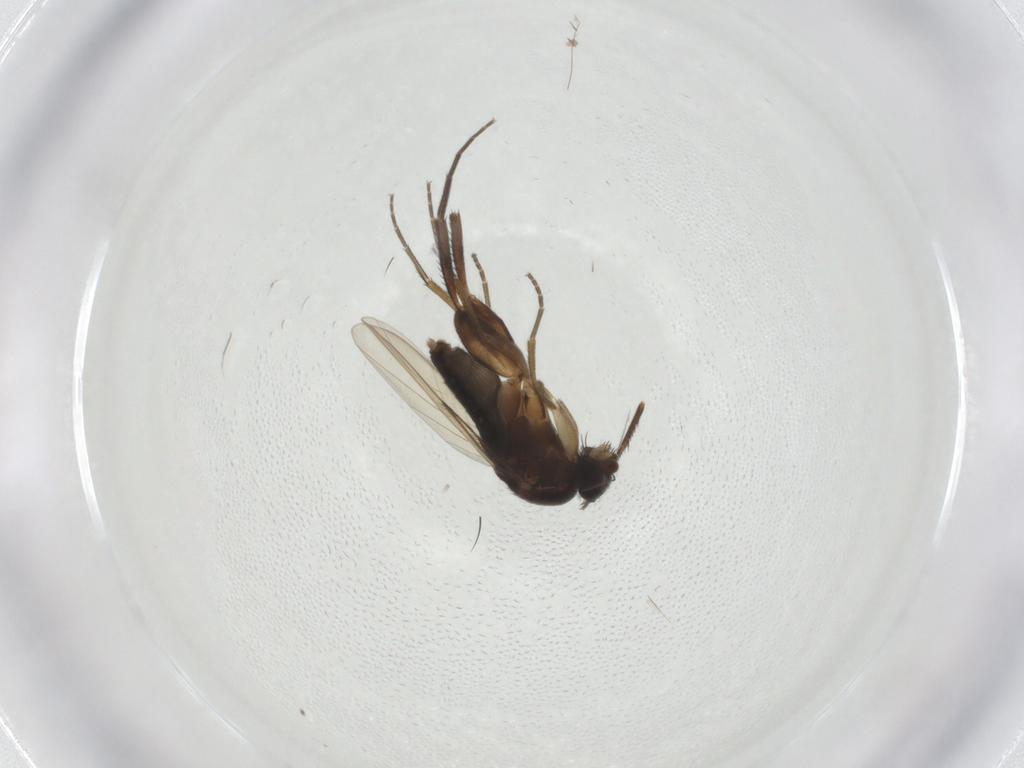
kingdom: Animalia
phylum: Arthropoda
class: Insecta
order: Diptera
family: Phoridae
